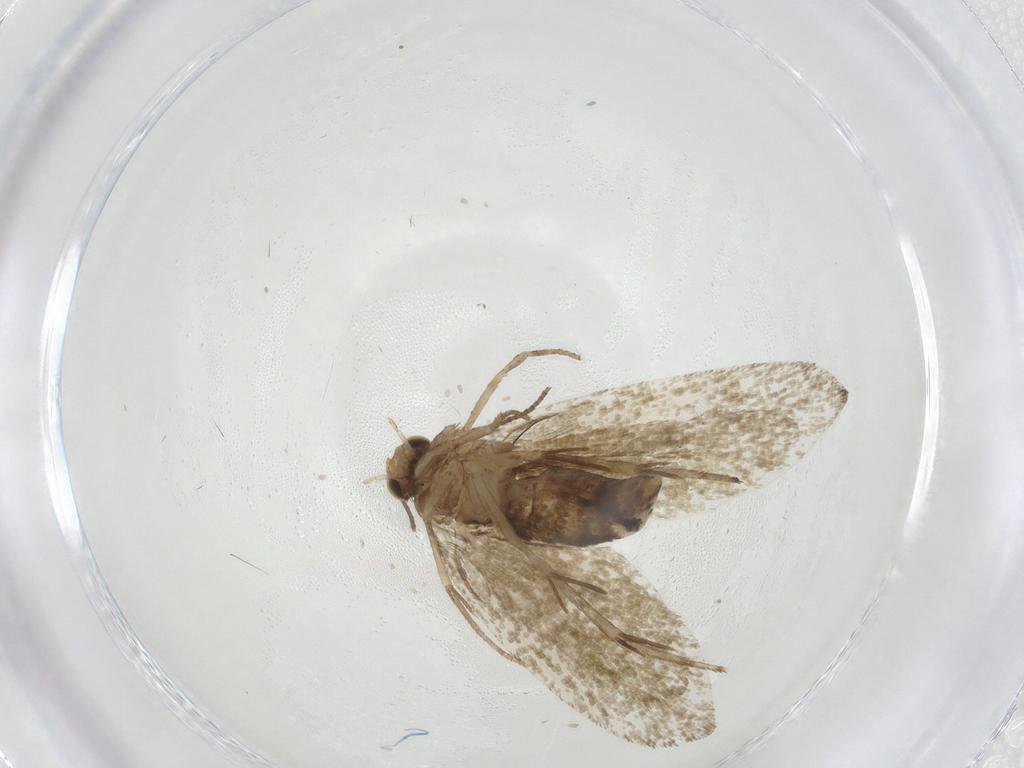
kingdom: Animalia
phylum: Arthropoda
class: Insecta
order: Lepidoptera
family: Tineidae
